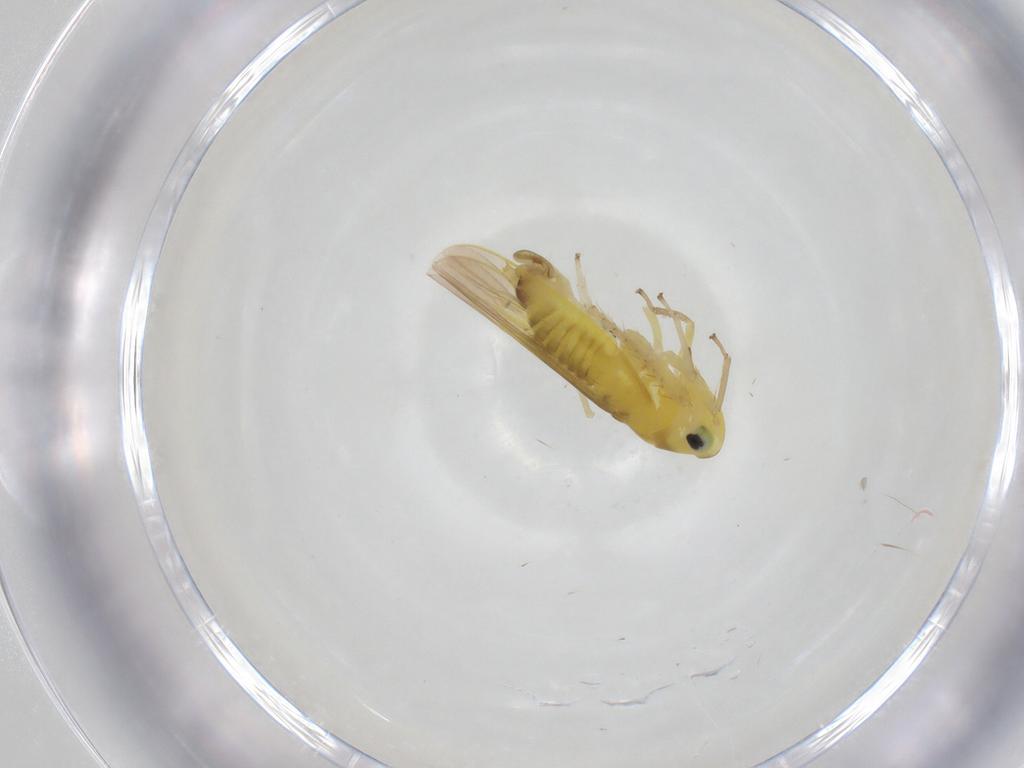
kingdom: Animalia
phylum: Arthropoda
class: Insecta
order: Hemiptera
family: Cicadellidae
